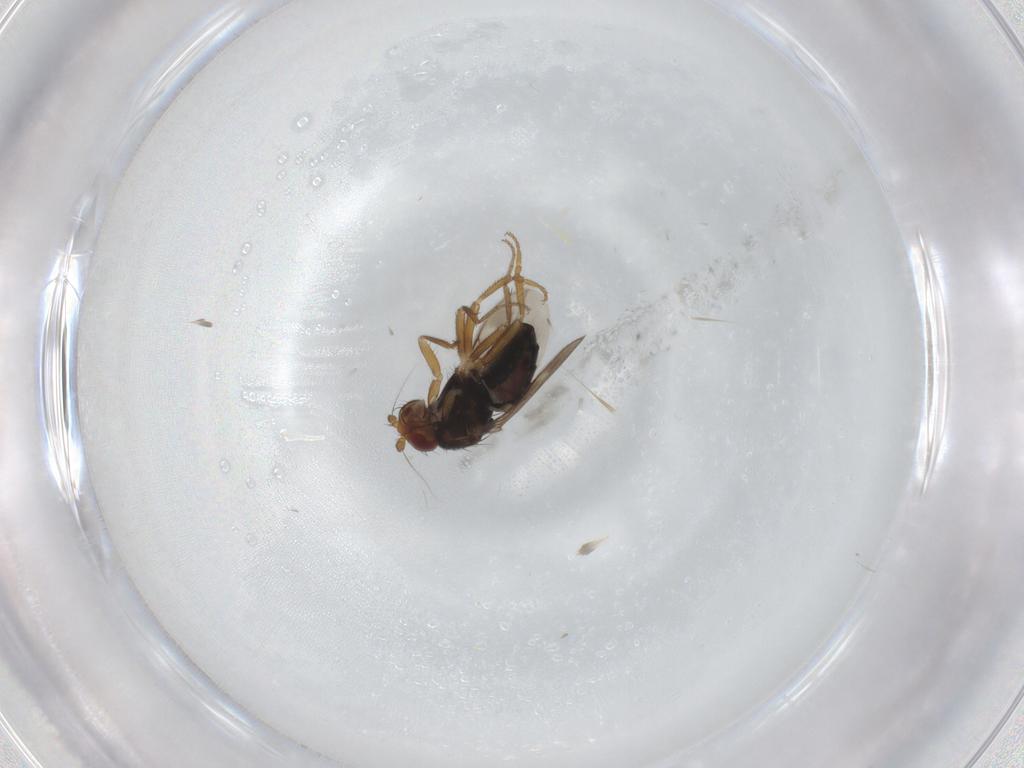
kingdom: Animalia
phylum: Arthropoda
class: Insecta
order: Diptera
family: Sphaeroceridae
